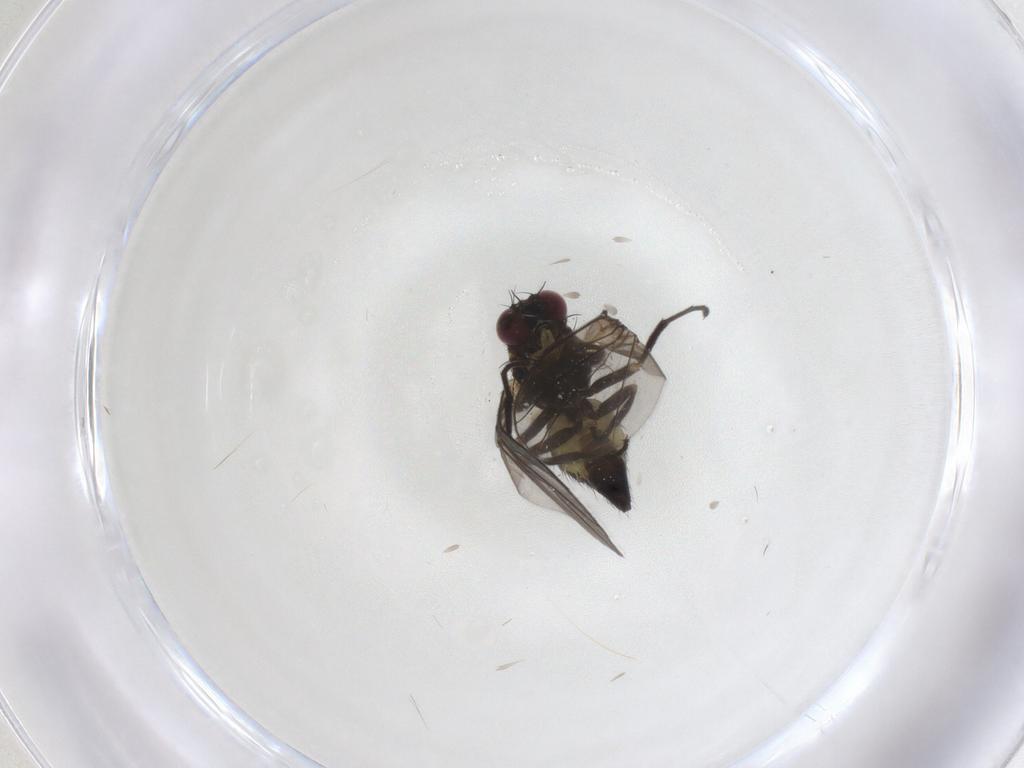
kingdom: Animalia
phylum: Arthropoda
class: Insecta
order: Diptera
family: Agromyzidae
